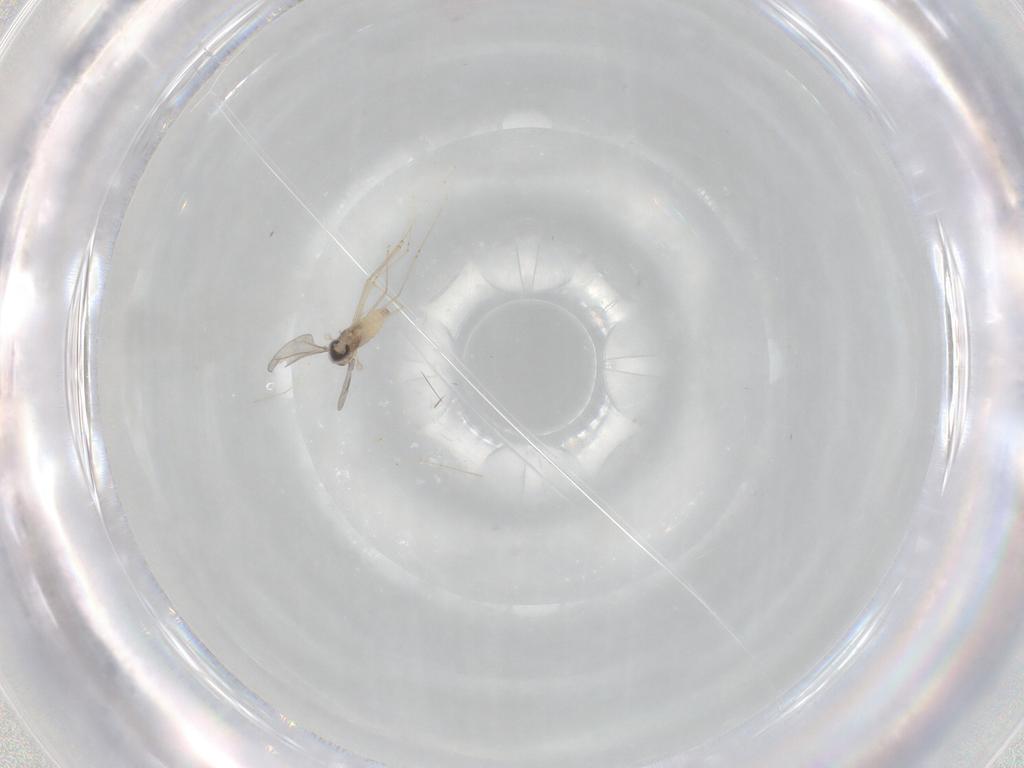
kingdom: Animalia
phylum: Arthropoda
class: Insecta
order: Diptera
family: Cecidomyiidae
